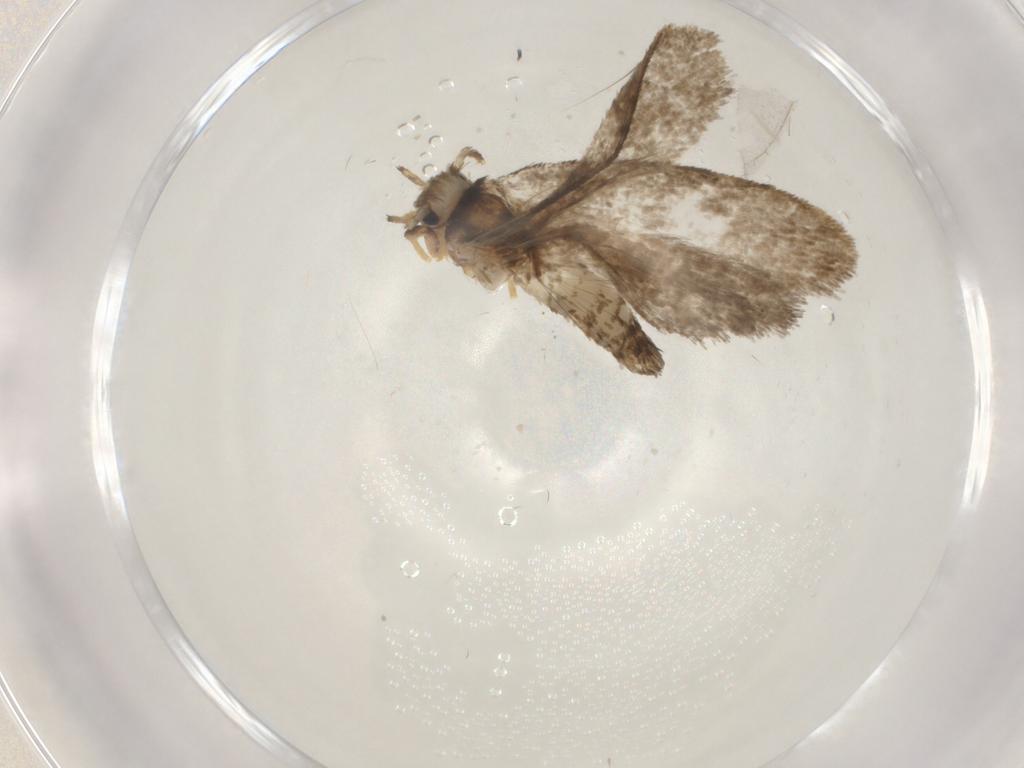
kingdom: Animalia
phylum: Arthropoda
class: Insecta
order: Lepidoptera
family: Psychidae
